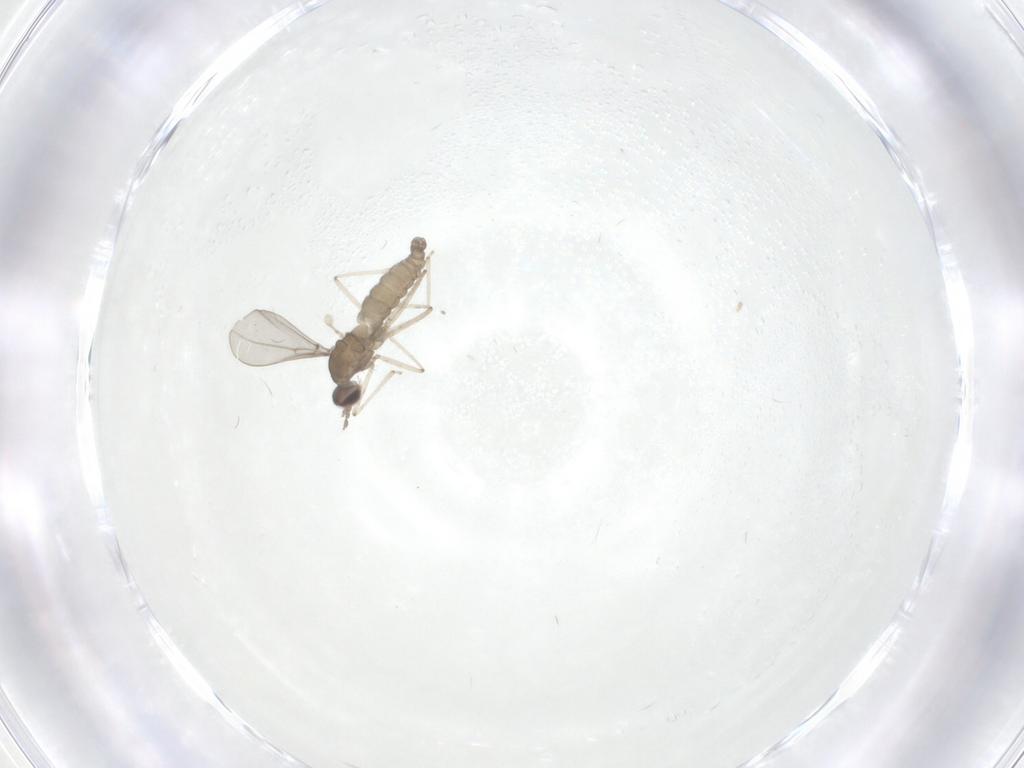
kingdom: Animalia
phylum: Arthropoda
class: Insecta
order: Diptera
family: Cecidomyiidae
